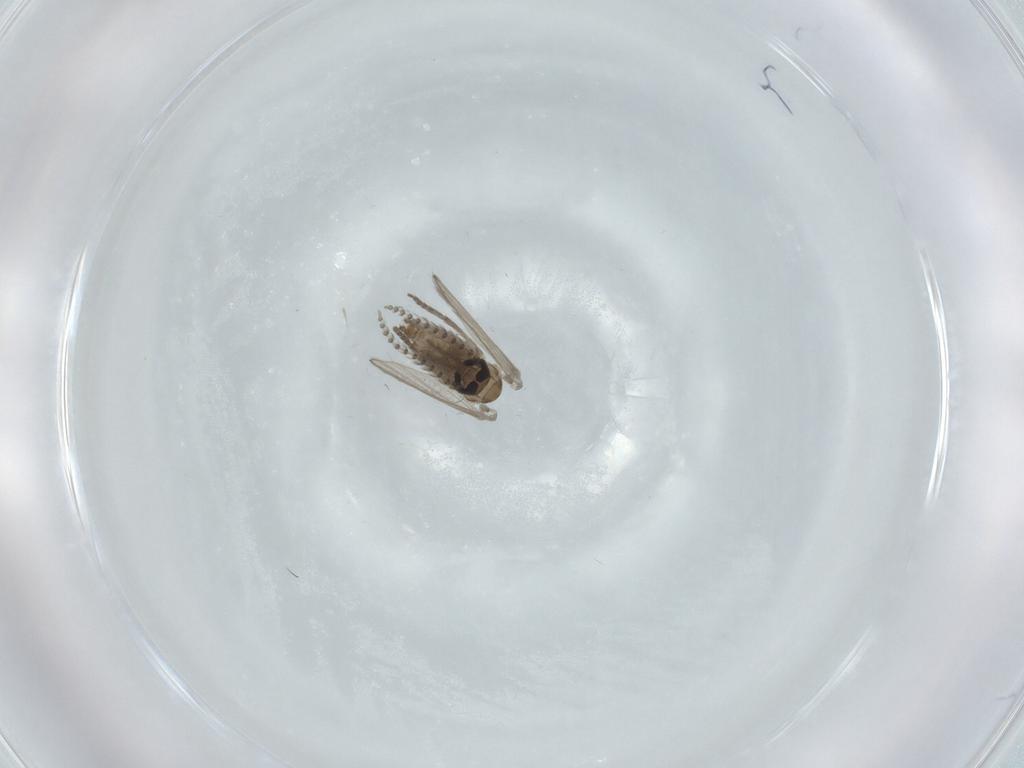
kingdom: Animalia
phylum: Arthropoda
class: Insecta
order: Diptera
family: Psychodidae
